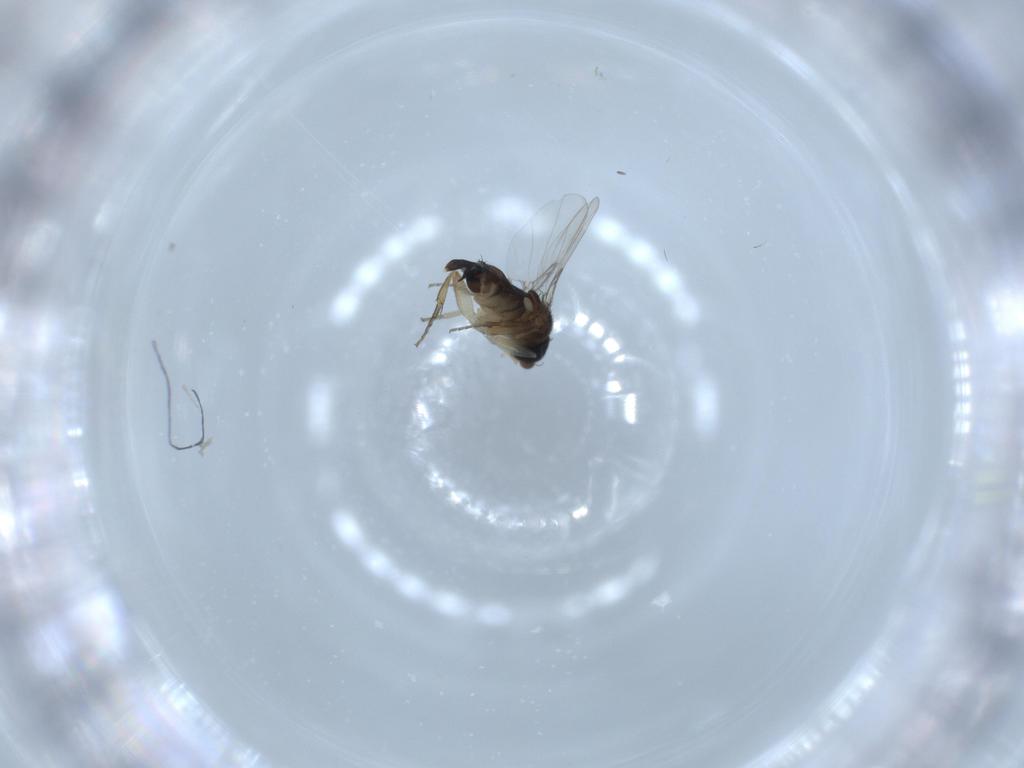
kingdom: Animalia
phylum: Arthropoda
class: Insecta
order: Diptera
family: Phoridae
